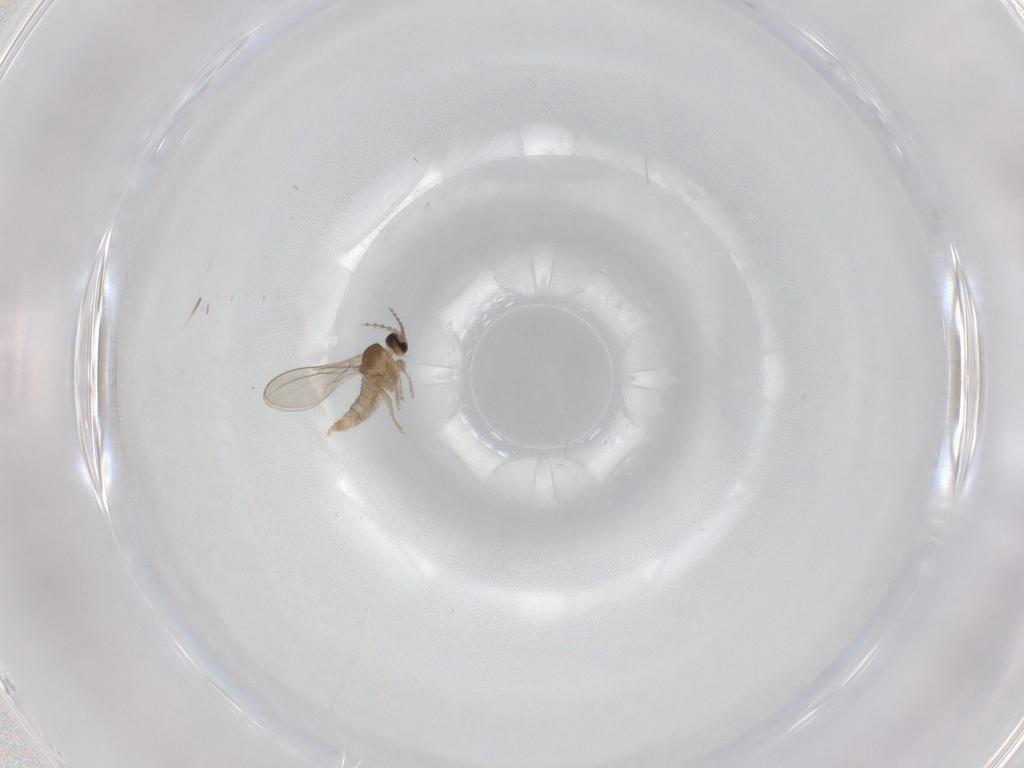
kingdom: Animalia
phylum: Arthropoda
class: Insecta
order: Diptera
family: Cecidomyiidae
